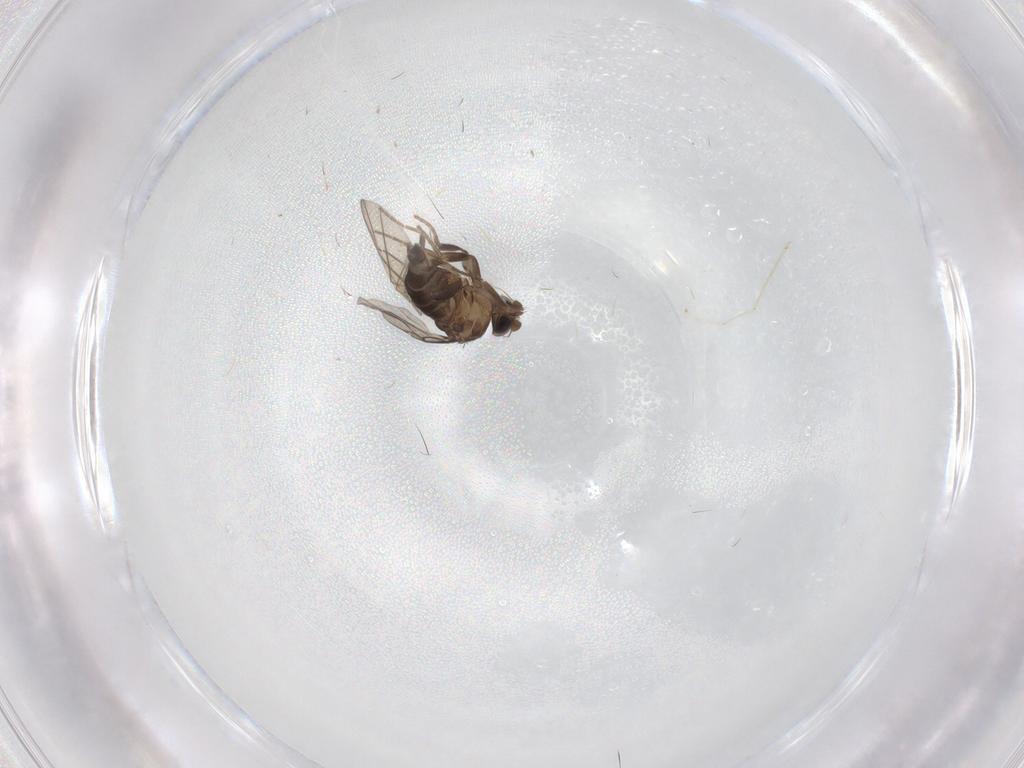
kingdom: Animalia
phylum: Arthropoda
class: Insecta
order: Diptera
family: Phoridae
